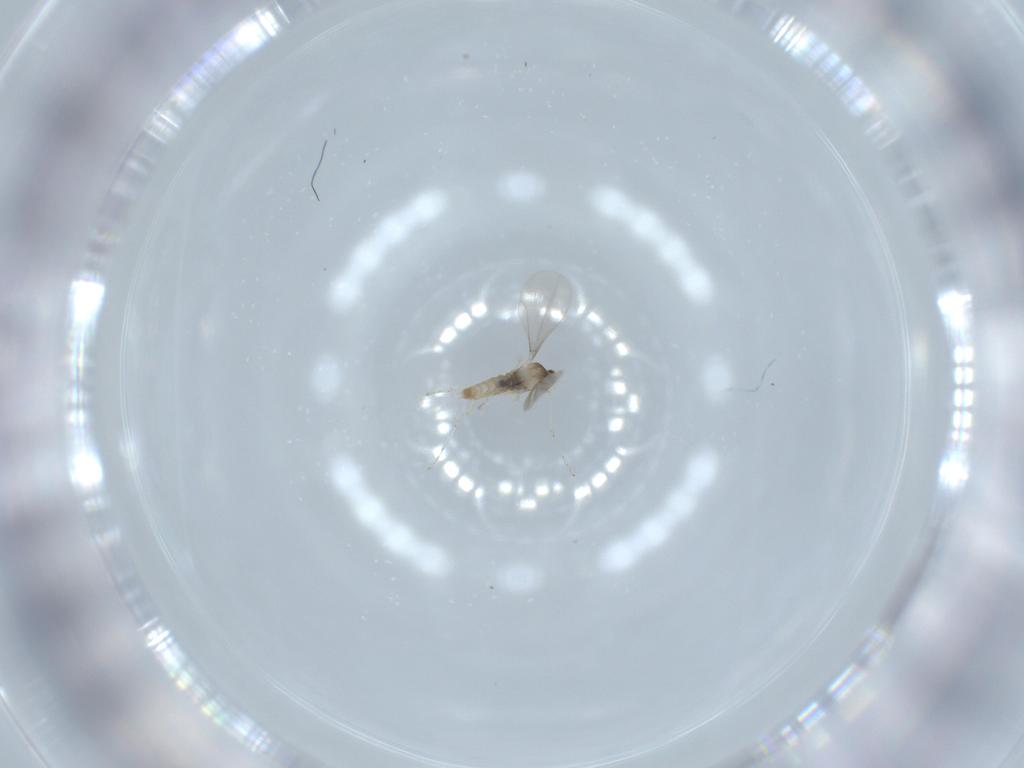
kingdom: Animalia
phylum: Arthropoda
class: Insecta
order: Diptera
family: Cecidomyiidae
